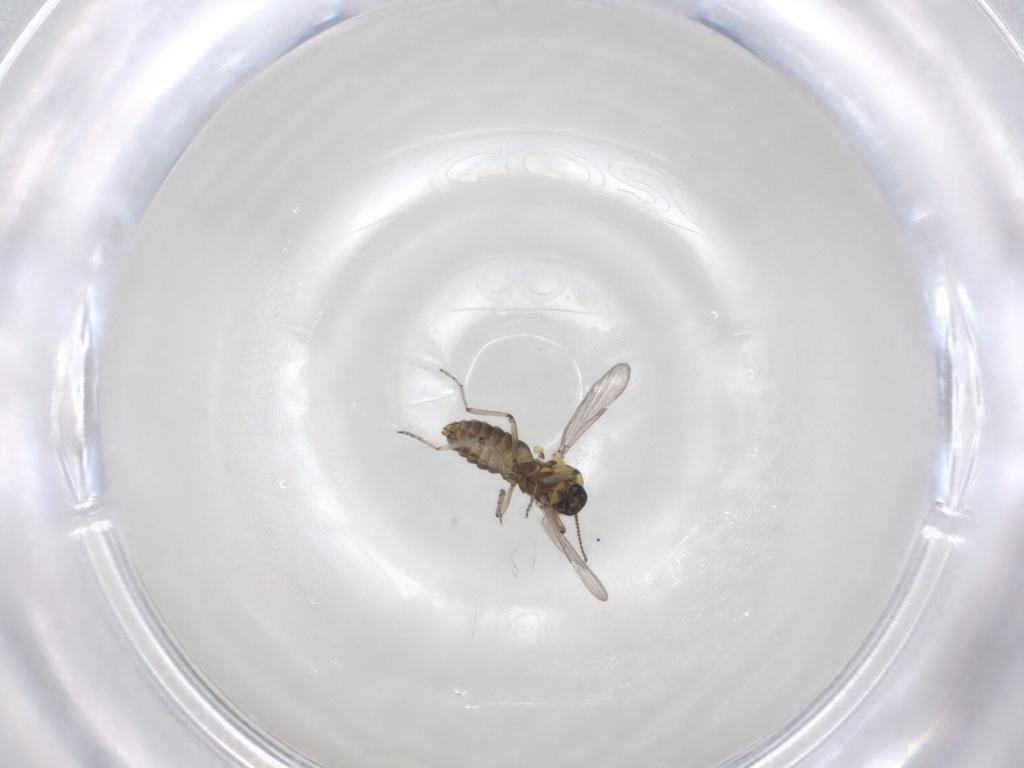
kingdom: Animalia
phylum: Arthropoda
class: Insecta
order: Diptera
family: Ceratopogonidae
